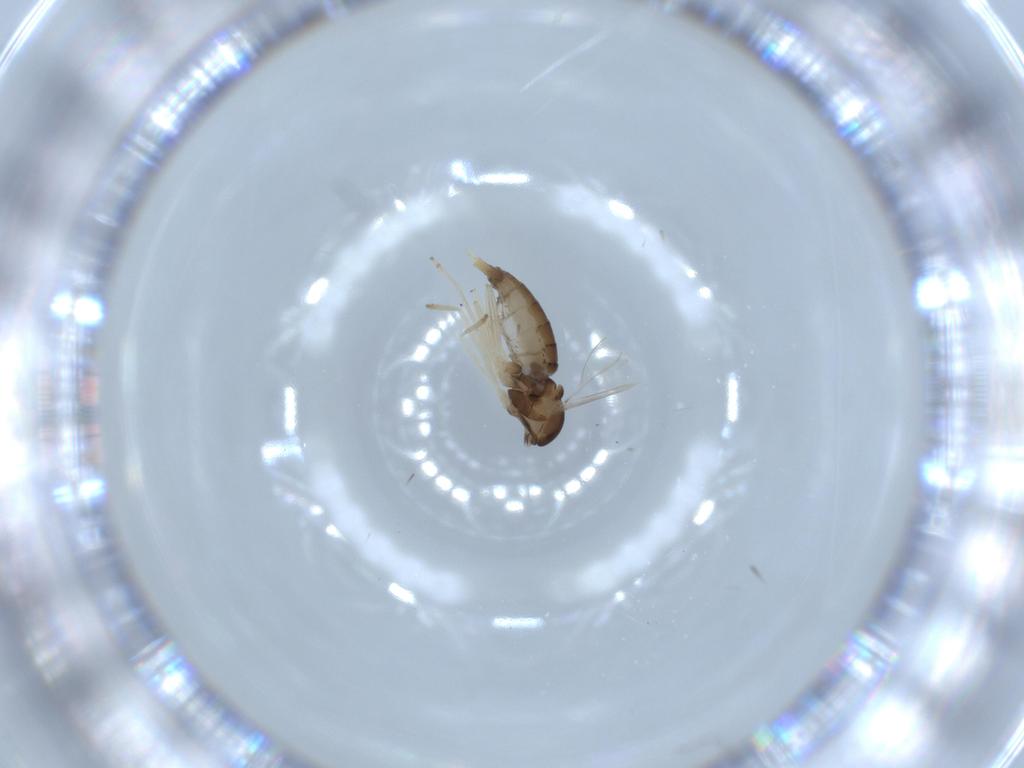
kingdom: Animalia
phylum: Arthropoda
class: Insecta
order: Diptera
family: Cecidomyiidae
